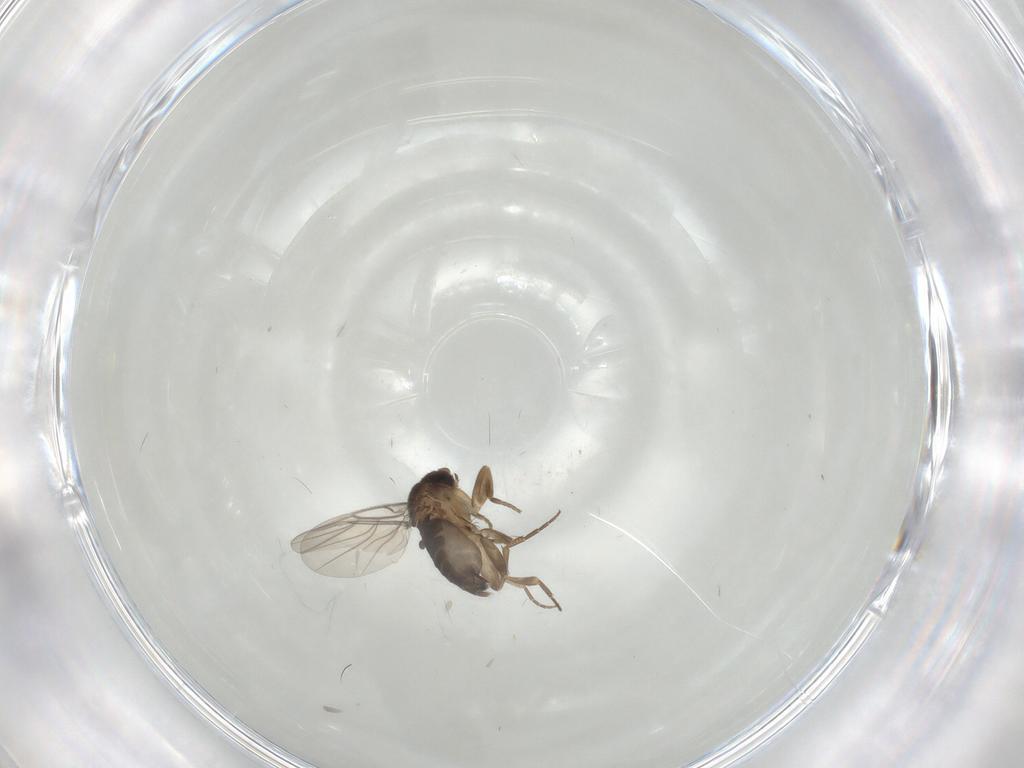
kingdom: Animalia
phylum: Arthropoda
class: Insecta
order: Diptera
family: Phoridae
